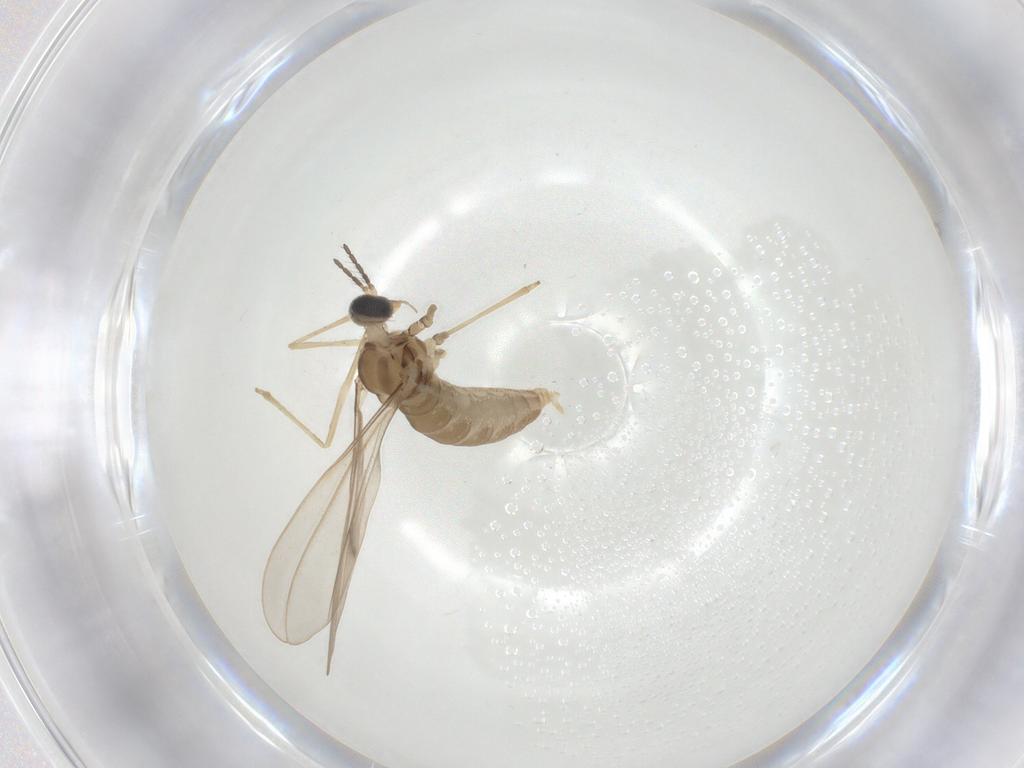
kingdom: Animalia
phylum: Arthropoda
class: Insecta
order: Diptera
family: Cecidomyiidae
